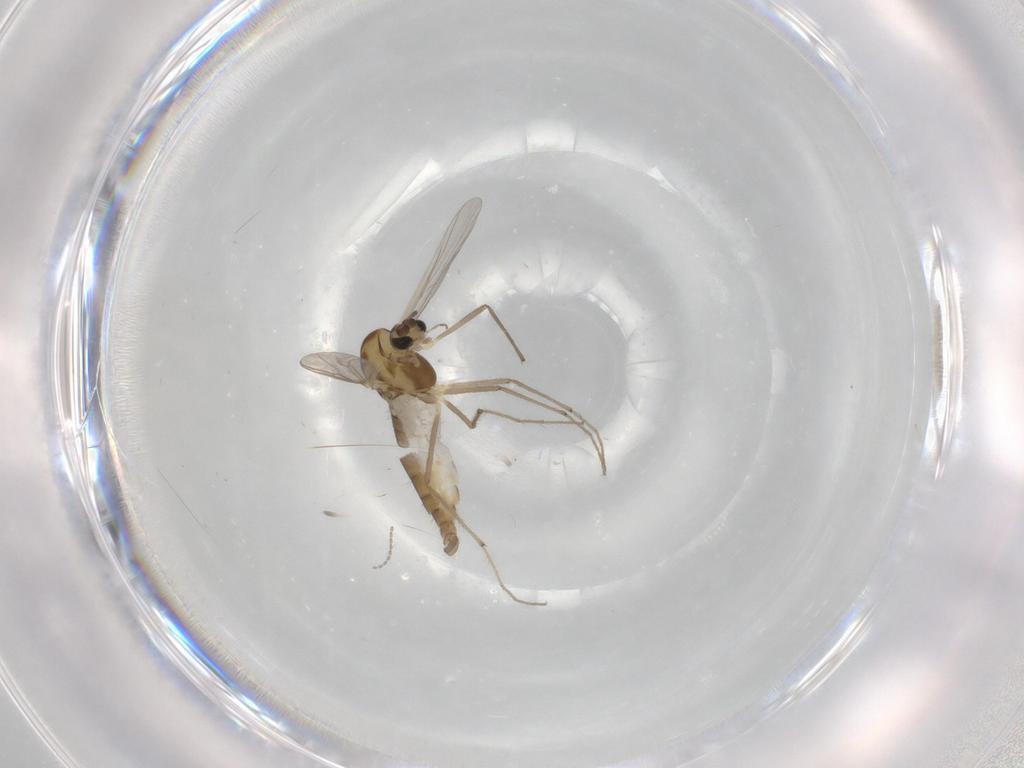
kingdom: Animalia
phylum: Arthropoda
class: Insecta
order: Diptera
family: Chironomidae
